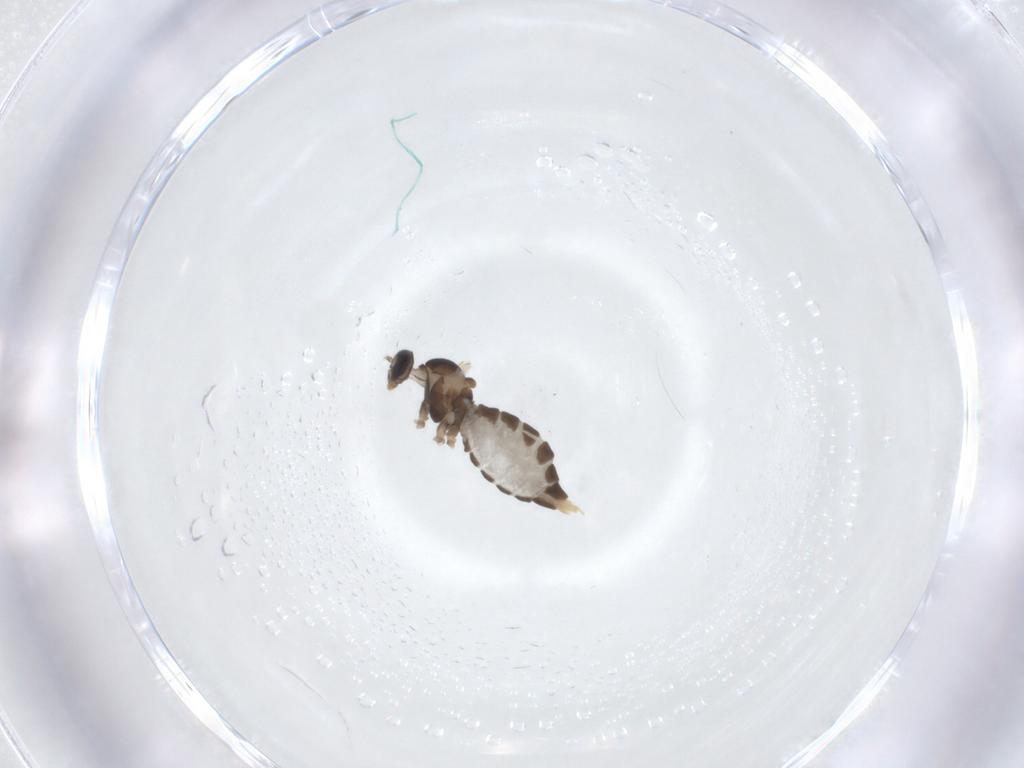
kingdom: Animalia
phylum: Arthropoda
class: Insecta
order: Diptera
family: Cecidomyiidae
